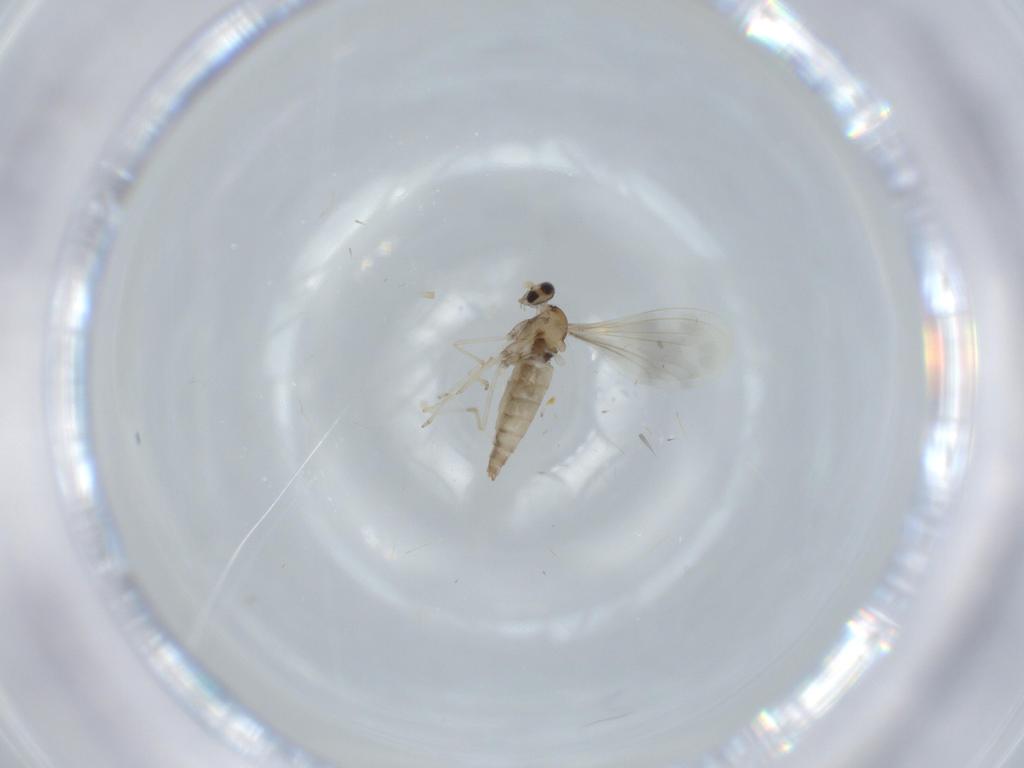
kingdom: Animalia
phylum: Arthropoda
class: Insecta
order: Diptera
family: Cecidomyiidae
